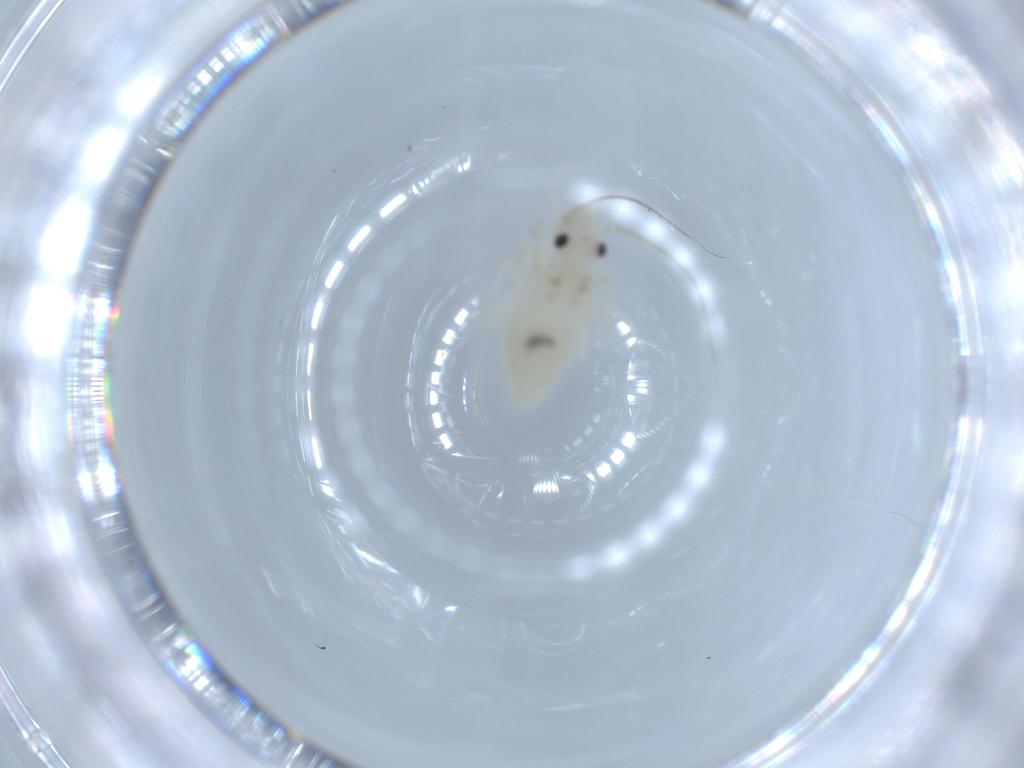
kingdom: Animalia
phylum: Arthropoda
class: Insecta
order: Psocodea
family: Caeciliusidae
